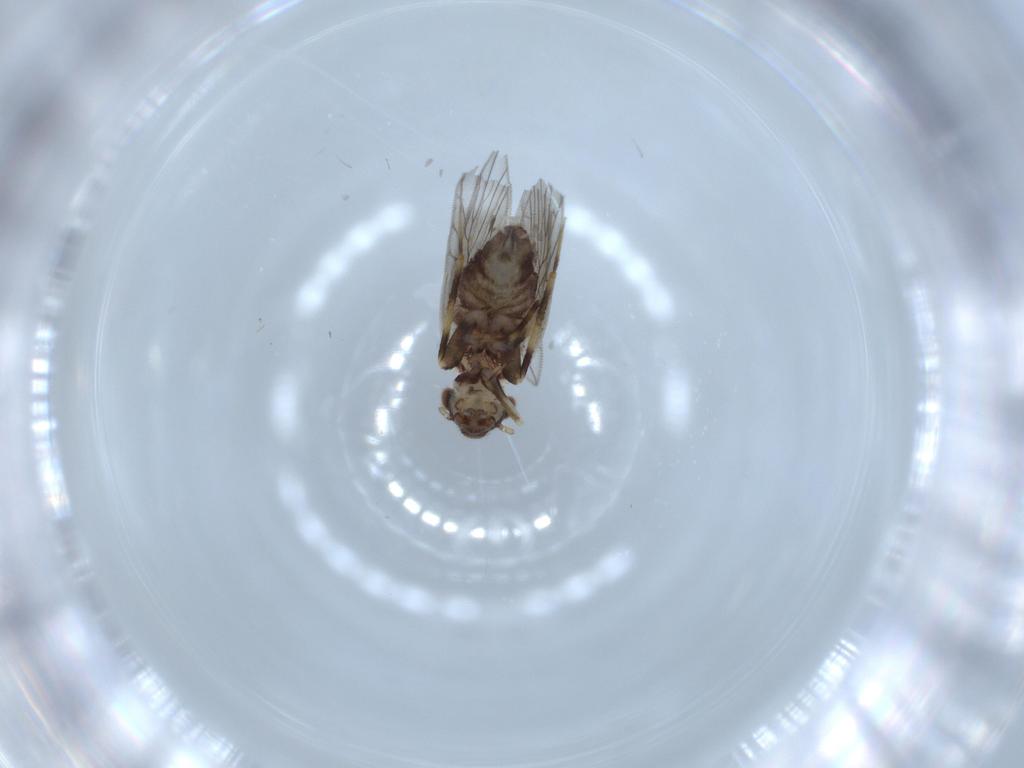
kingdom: Animalia
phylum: Arthropoda
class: Insecta
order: Psocodea
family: Lepidopsocidae
